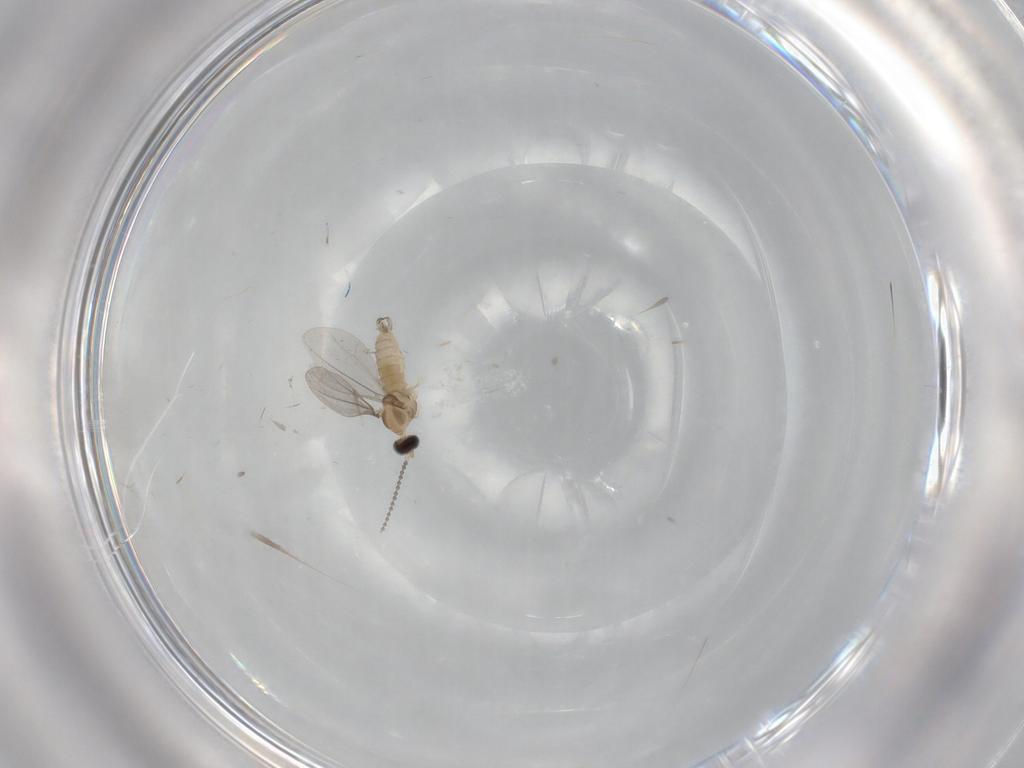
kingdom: Animalia
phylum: Arthropoda
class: Insecta
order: Diptera
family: Cecidomyiidae
